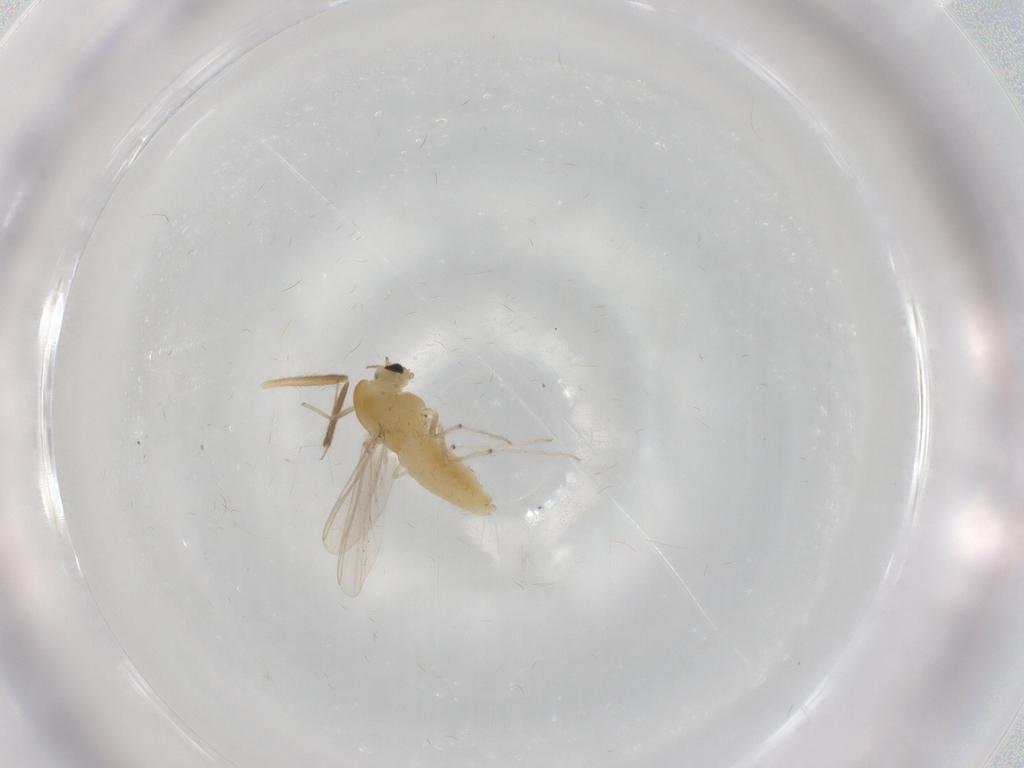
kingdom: Animalia
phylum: Arthropoda
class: Insecta
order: Diptera
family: Chironomidae
